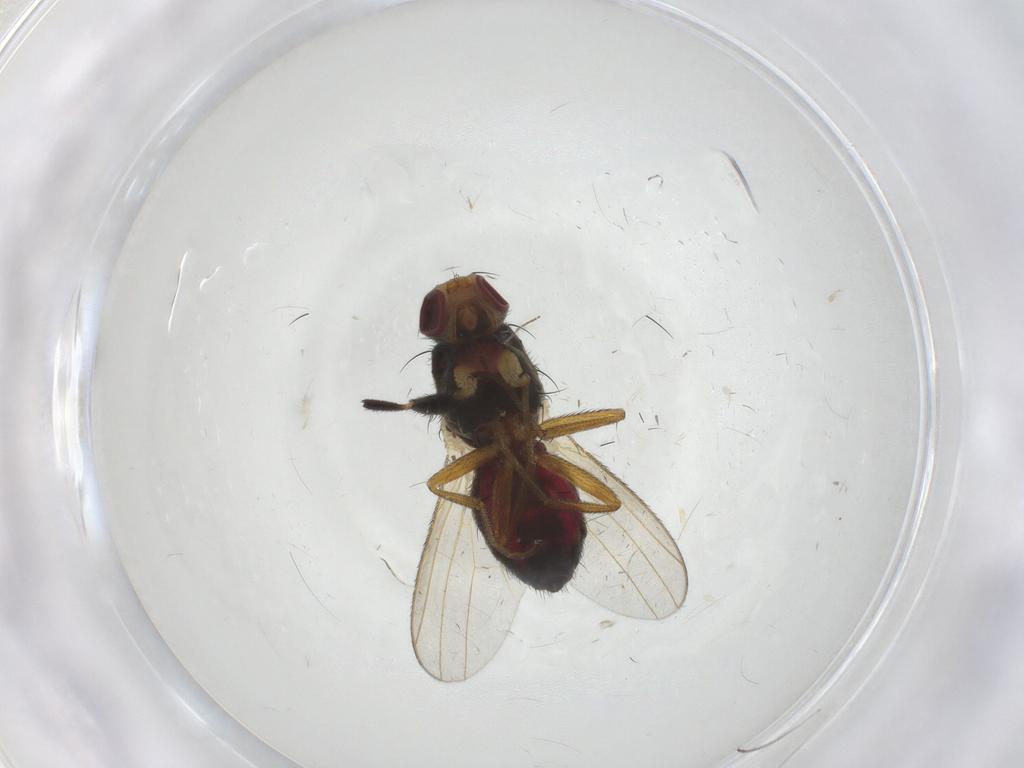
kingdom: Animalia
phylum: Arthropoda
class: Insecta
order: Diptera
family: Heleomyzidae
